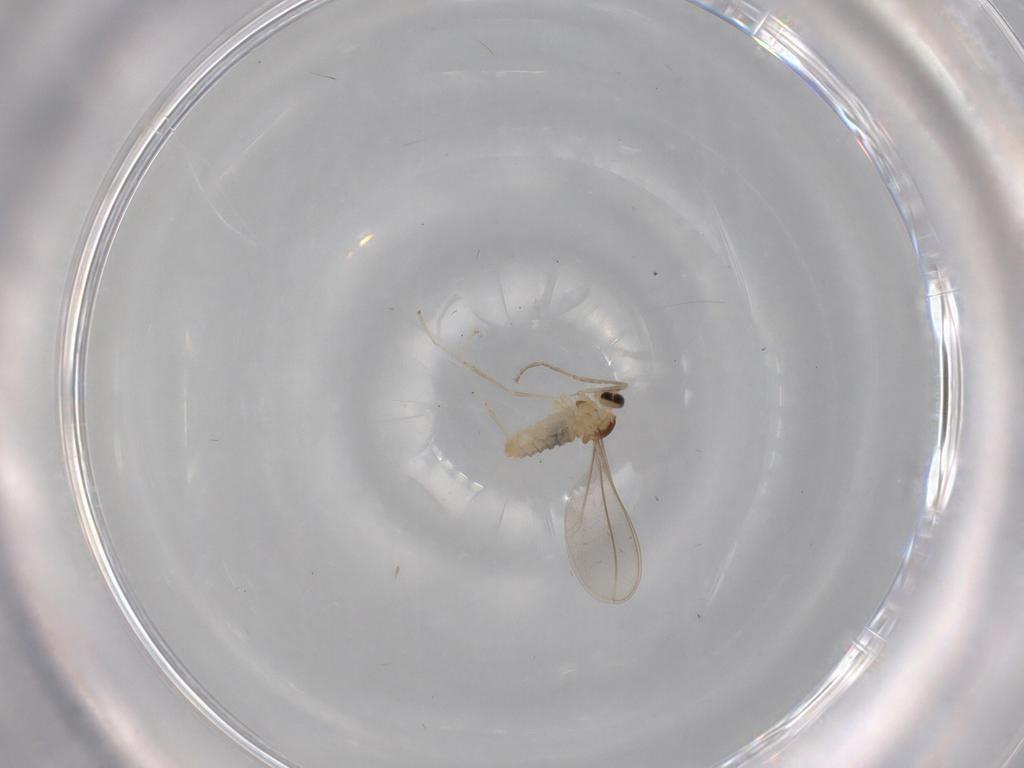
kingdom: Animalia
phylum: Arthropoda
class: Insecta
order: Diptera
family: Cecidomyiidae
